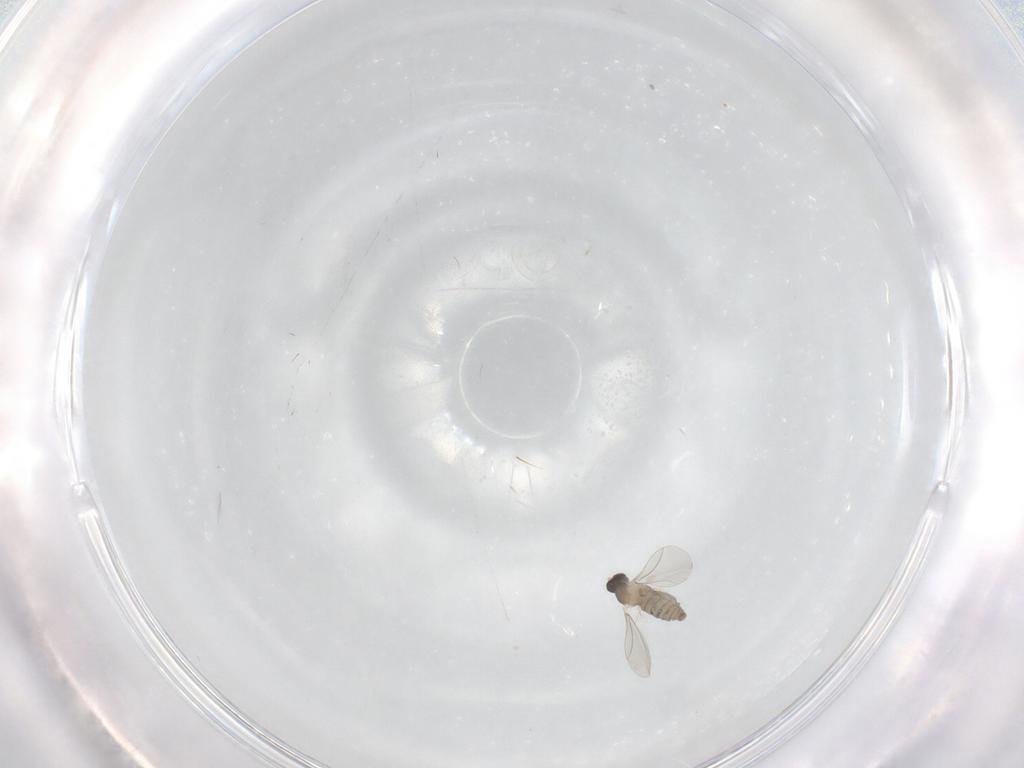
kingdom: Animalia
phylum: Arthropoda
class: Insecta
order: Diptera
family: Cecidomyiidae
